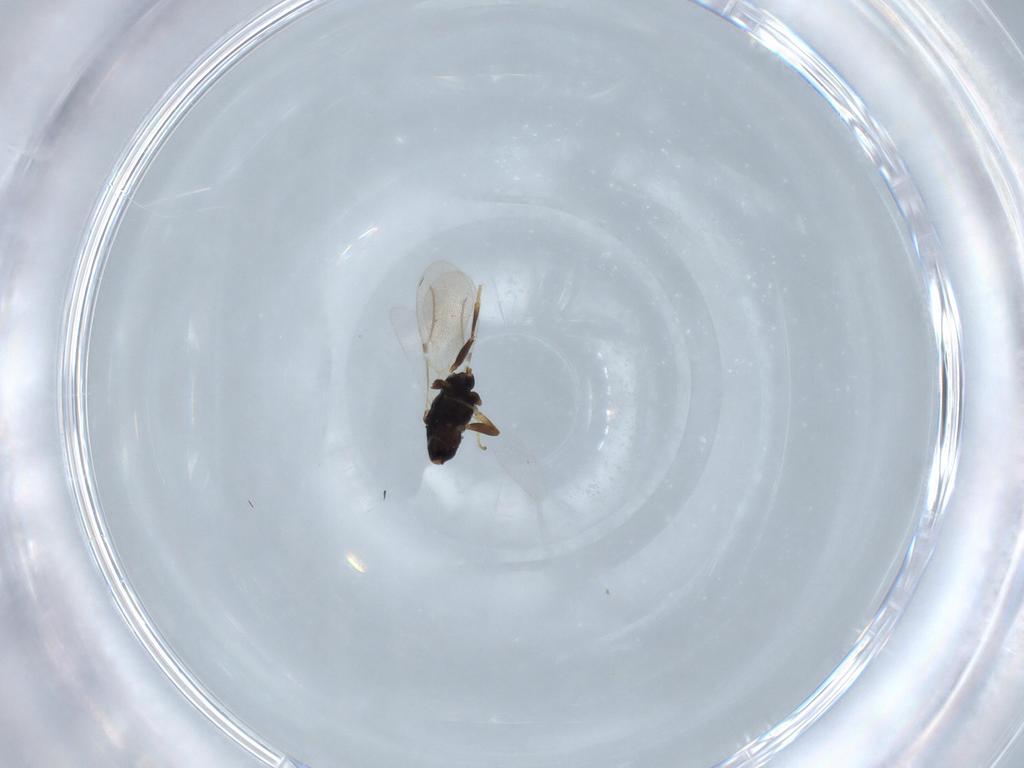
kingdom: Animalia
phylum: Arthropoda
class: Insecta
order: Hymenoptera
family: Bethylidae
